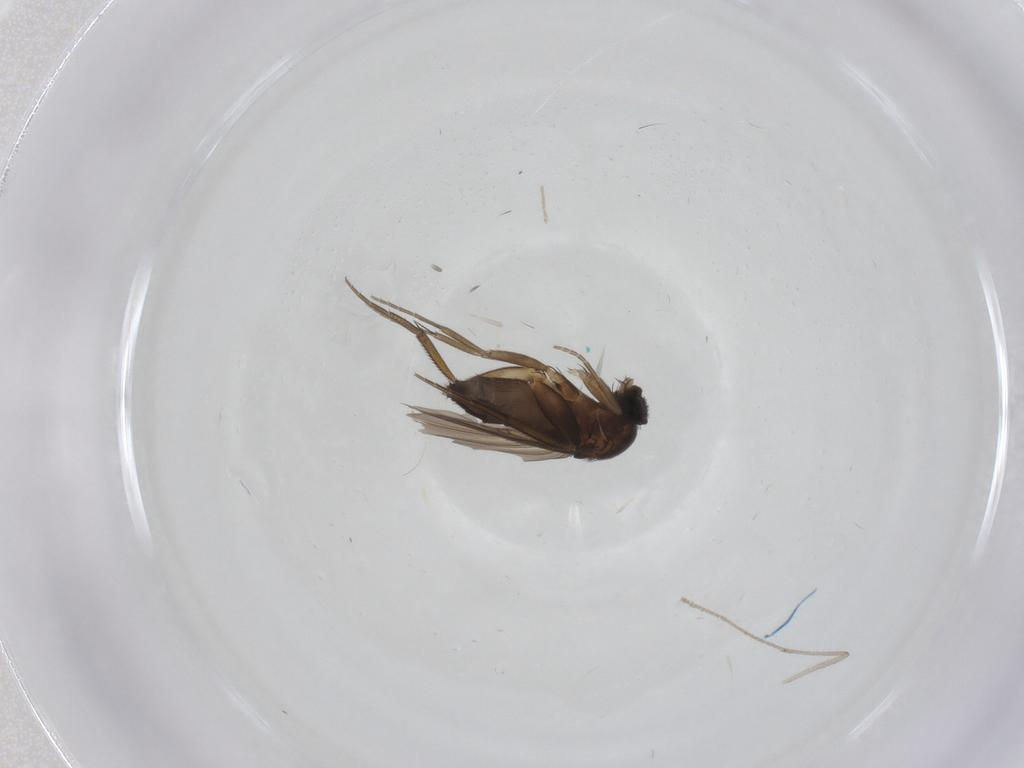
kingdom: Animalia
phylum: Arthropoda
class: Insecta
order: Diptera
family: Phoridae
